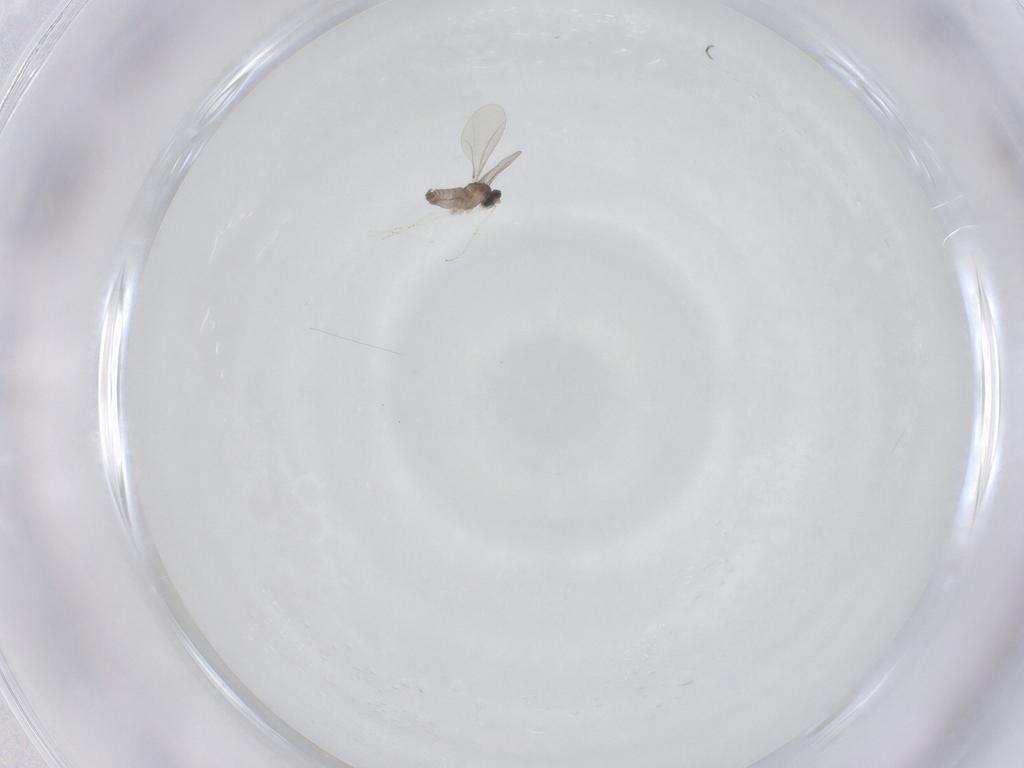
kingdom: Animalia
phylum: Arthropoda
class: Insecta
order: Diptera
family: Cecidomyiidae
